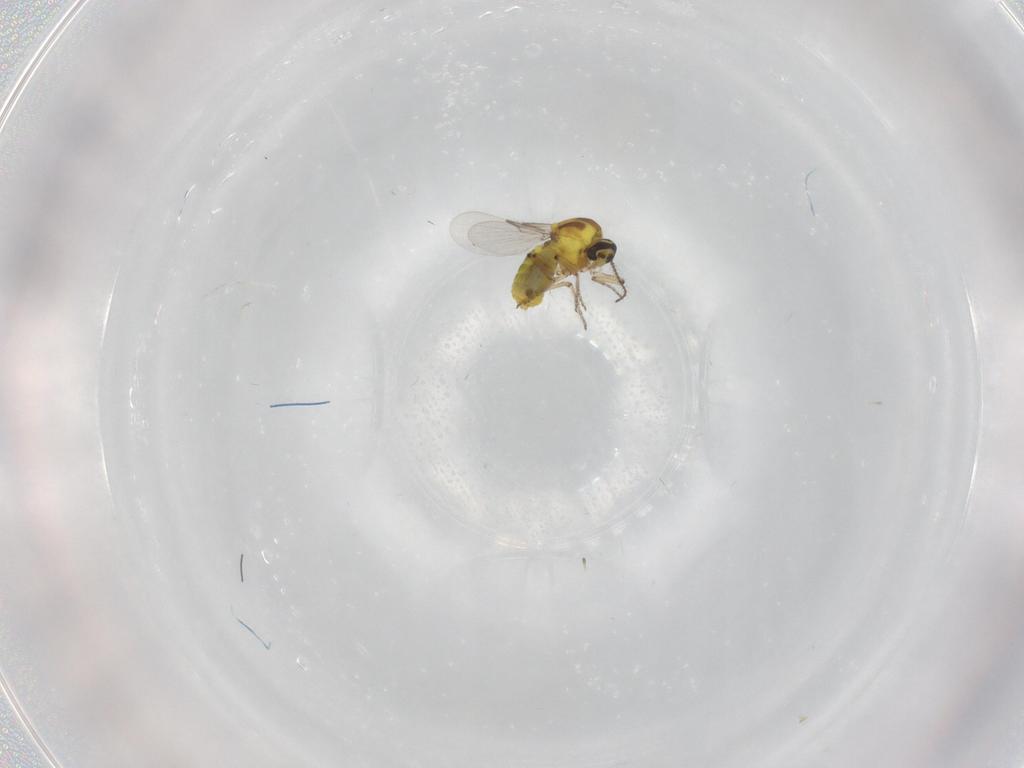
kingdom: Animalia
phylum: Arthropoda
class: Insecta
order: Diptera
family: Ceratopogonidae
